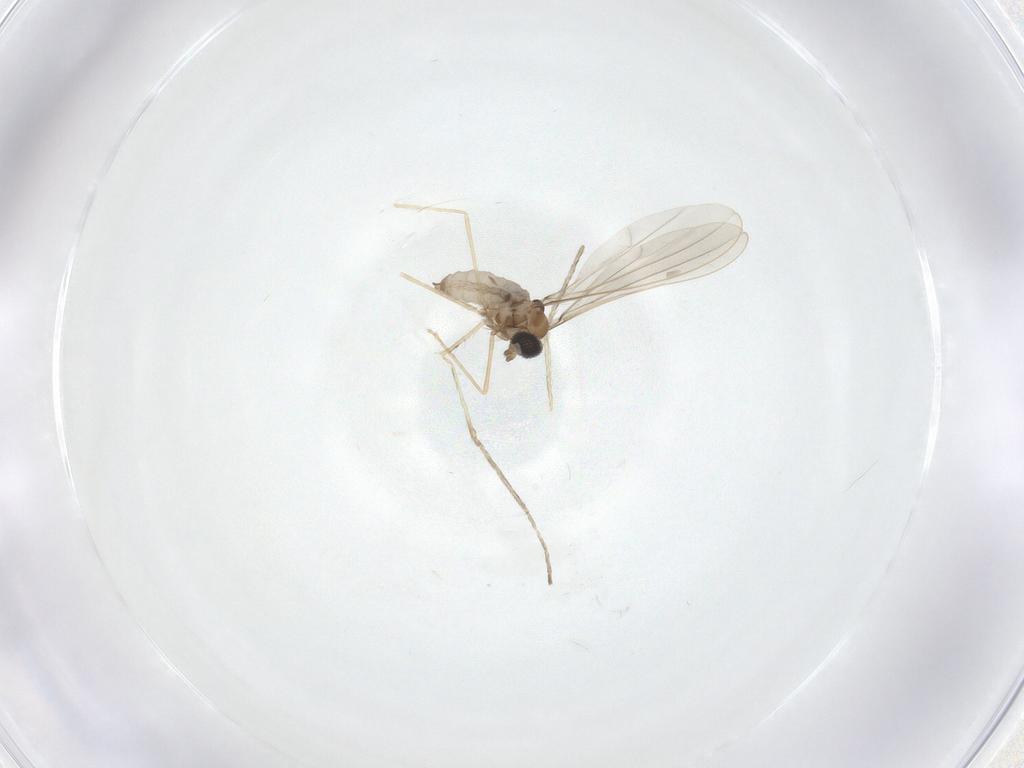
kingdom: Animalia
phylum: Arthropoda
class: Insecta
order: Diptera
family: Cecidomyiidae
